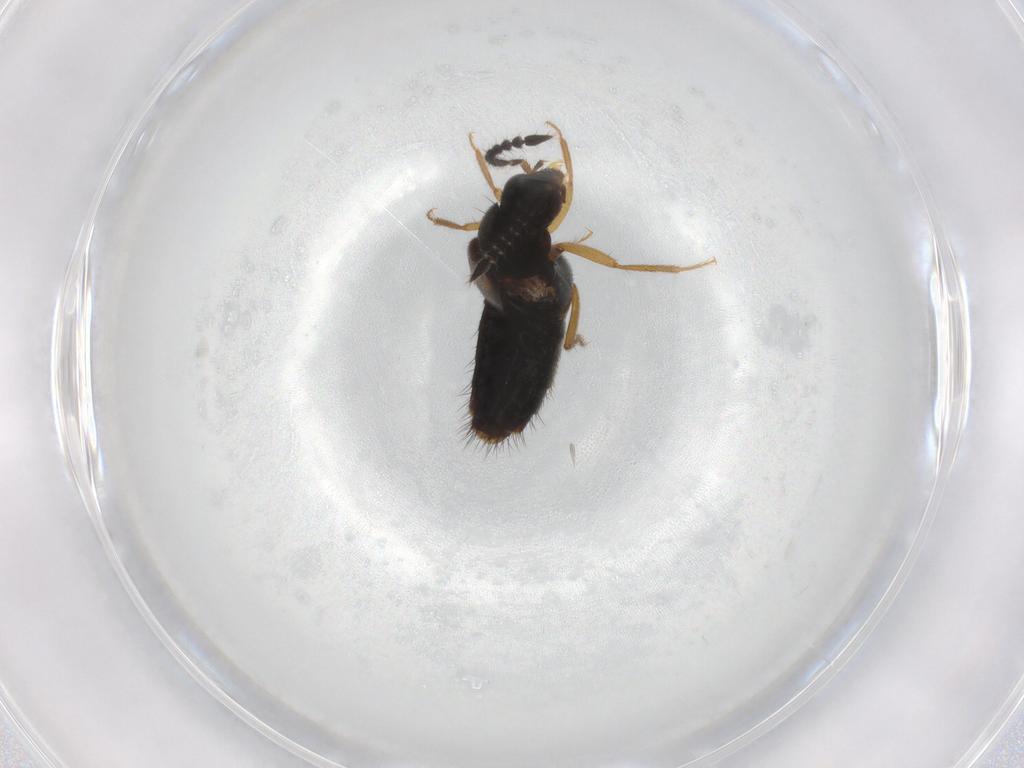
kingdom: Animalia
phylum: Arthropoda
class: Insecta
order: Coleoptera
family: Staphylinidae
